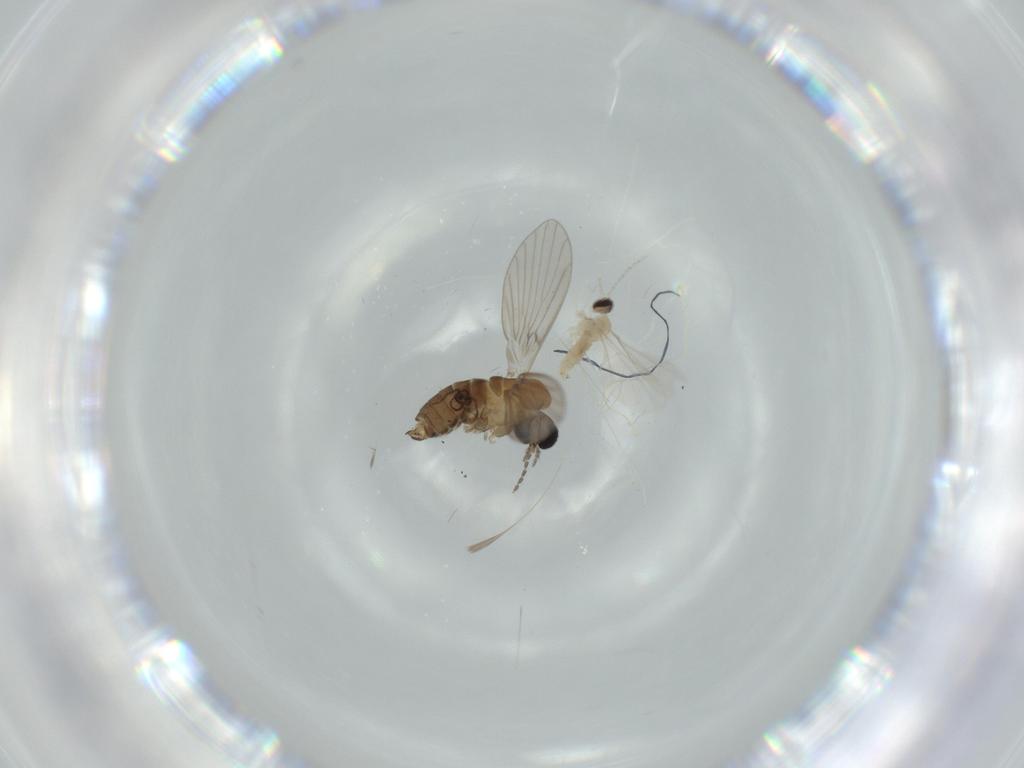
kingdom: Animalia
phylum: Arthropoda
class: Insecta
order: Diptera
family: Cecidomyiidae
